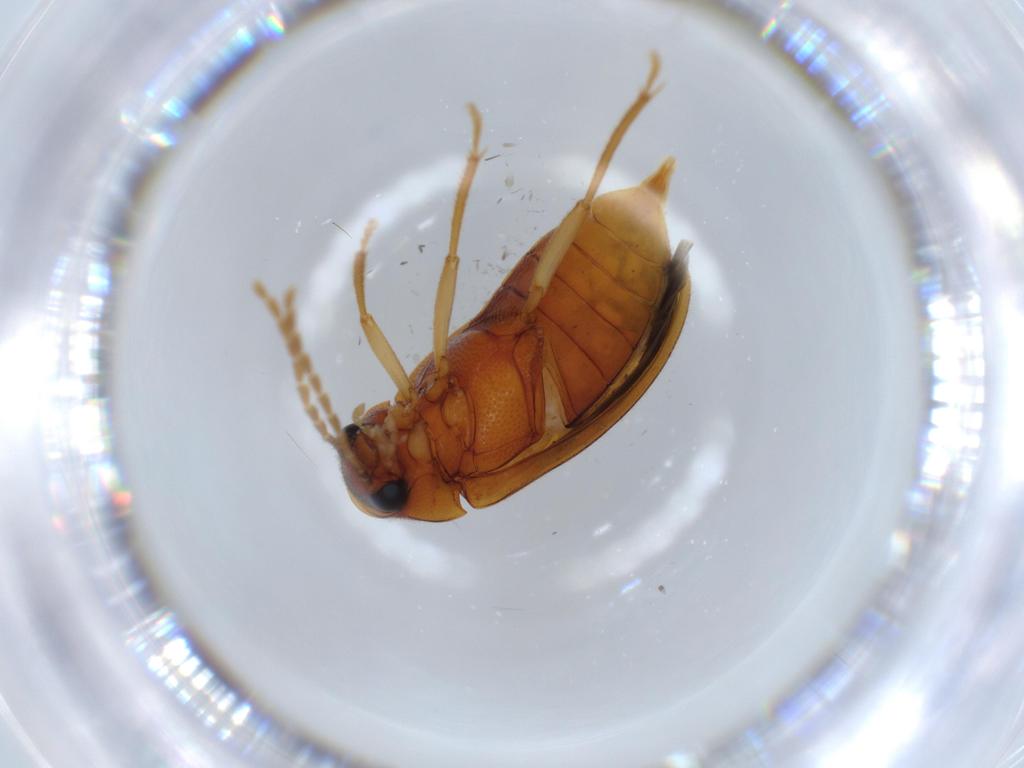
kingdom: Animalia
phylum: Arthropoda
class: Insecta
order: Coleoptera
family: Ptilodactylidae
